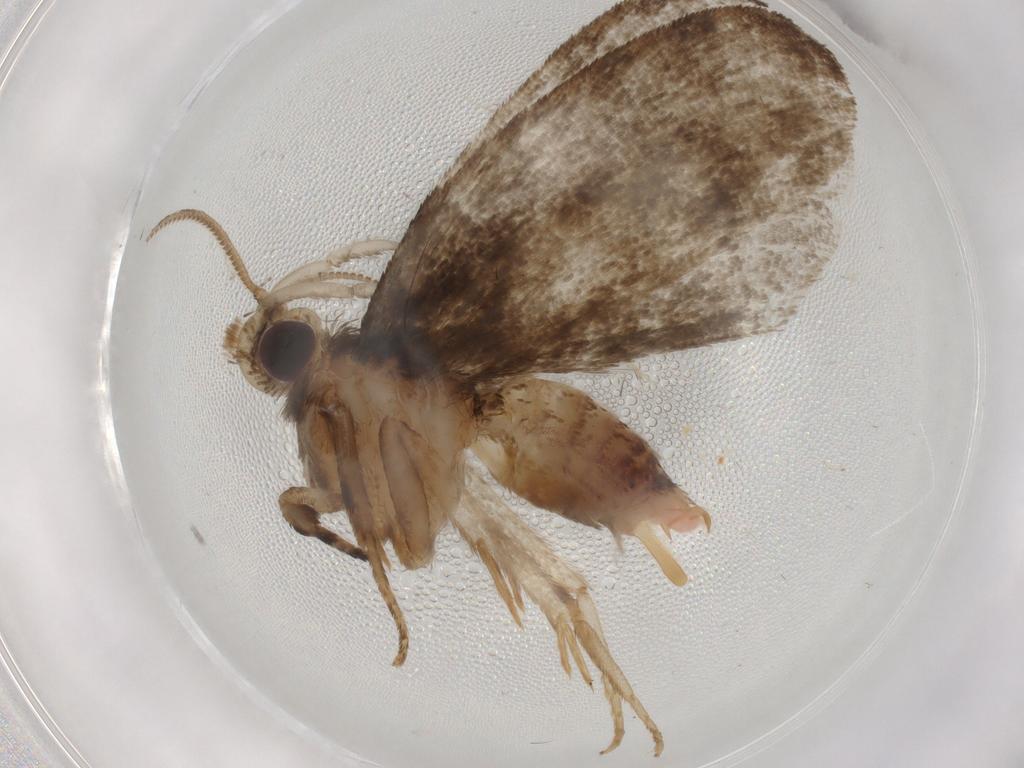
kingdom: Animalia
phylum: Arthropoda
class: Insecta
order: Lepidoptera
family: Tineidae
